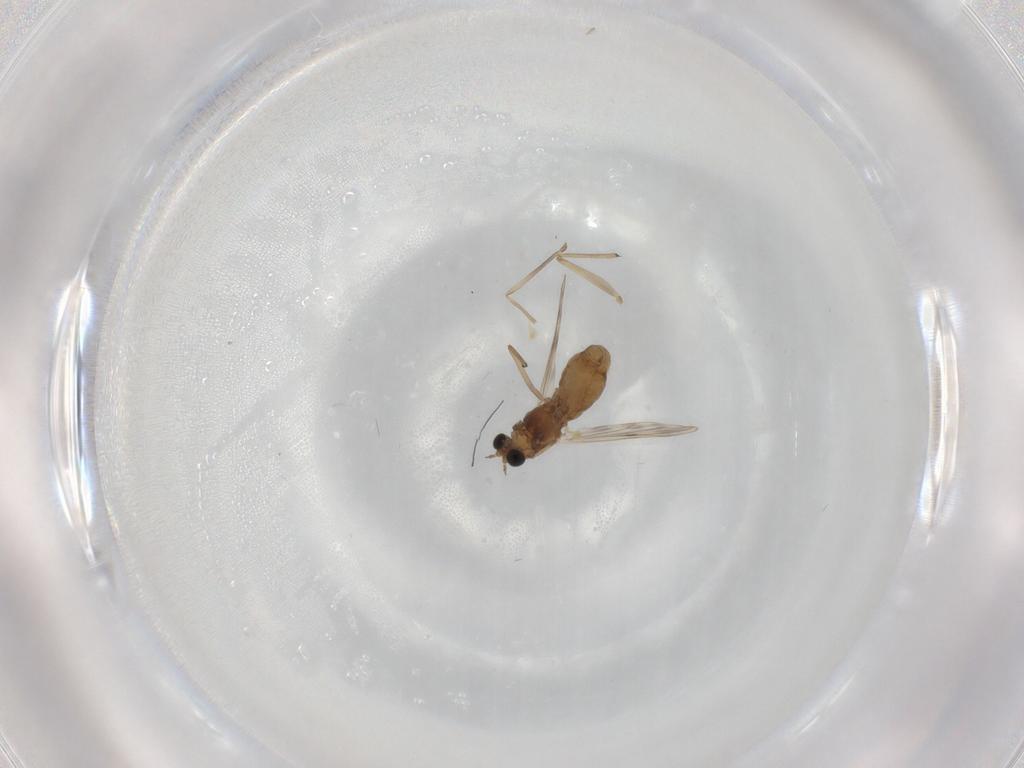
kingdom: Animalia
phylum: Arthropoda
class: Insecta
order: Diptera
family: Chironomidae
